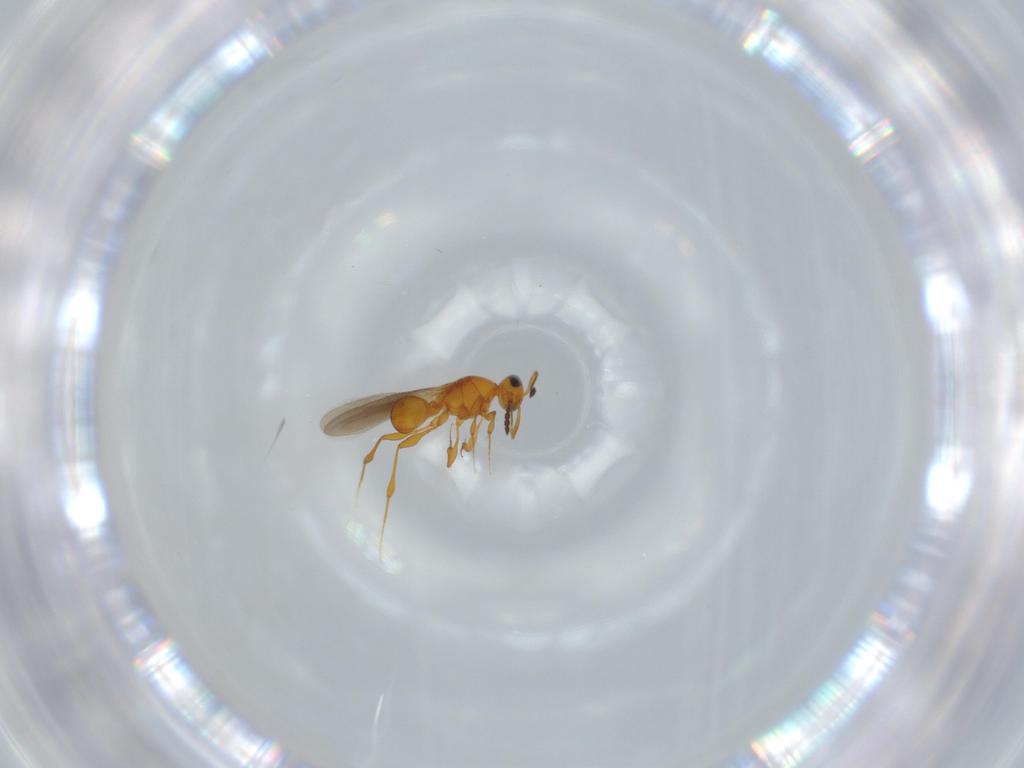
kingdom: Animalia
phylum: Arthropoda
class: Insecta
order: Hymenoptera
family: Platygastridae
